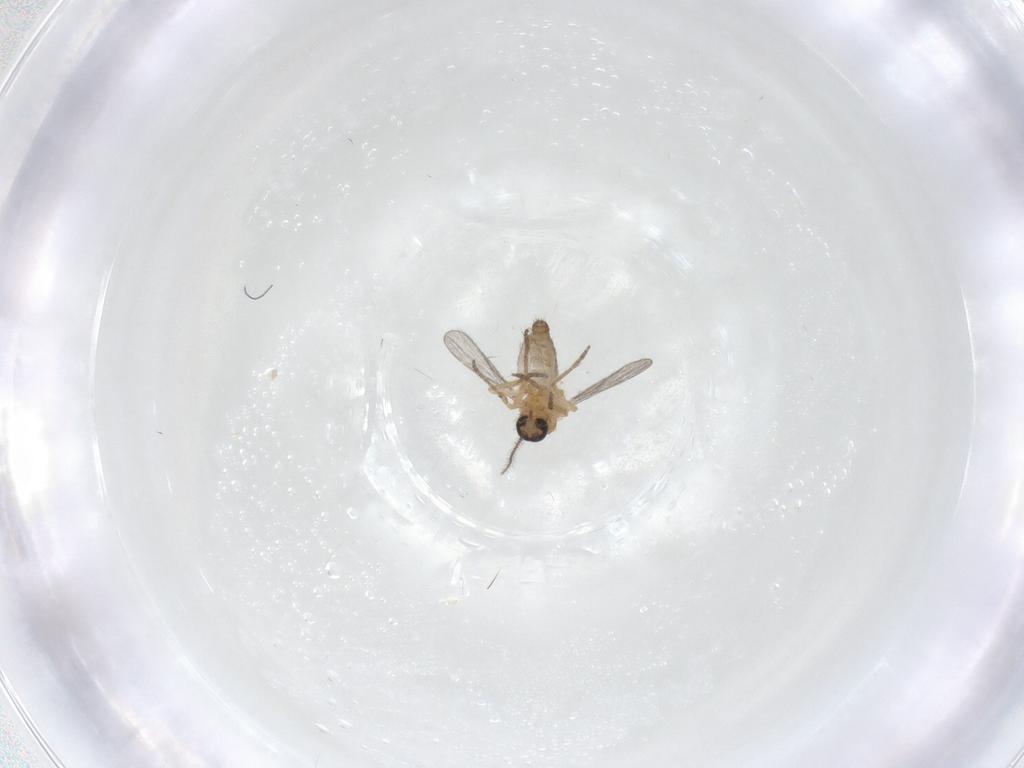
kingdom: Animalia
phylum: Arthropoda
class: Insecta
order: Diptera
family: Ceratopogonidae
